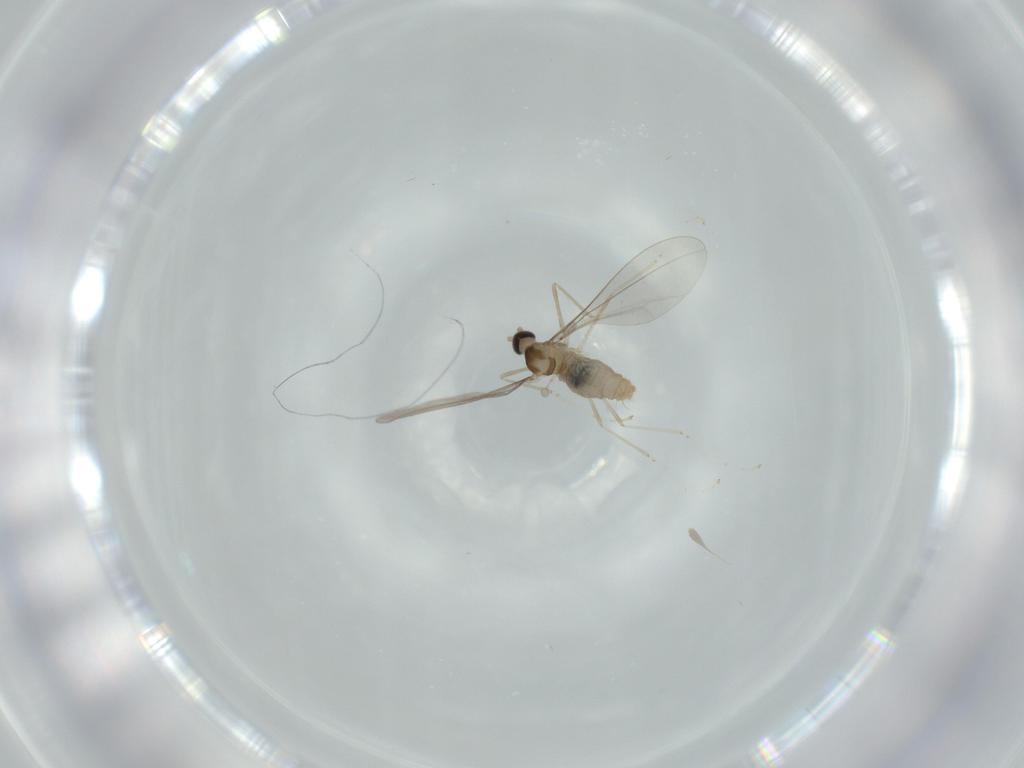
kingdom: Animalia
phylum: Arthropoda
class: Insecta
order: Diptera
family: Cecidomyiidae
